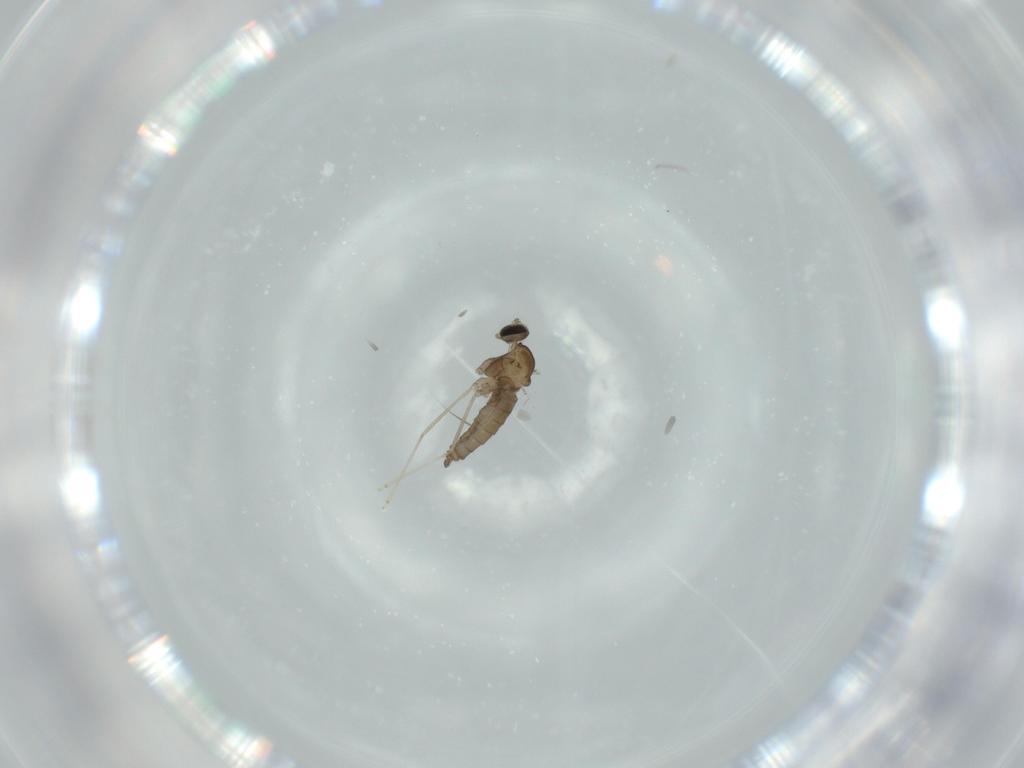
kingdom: Animalia
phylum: Arthropoda
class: Insecta
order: Diptera
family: Cecidomyiidae
